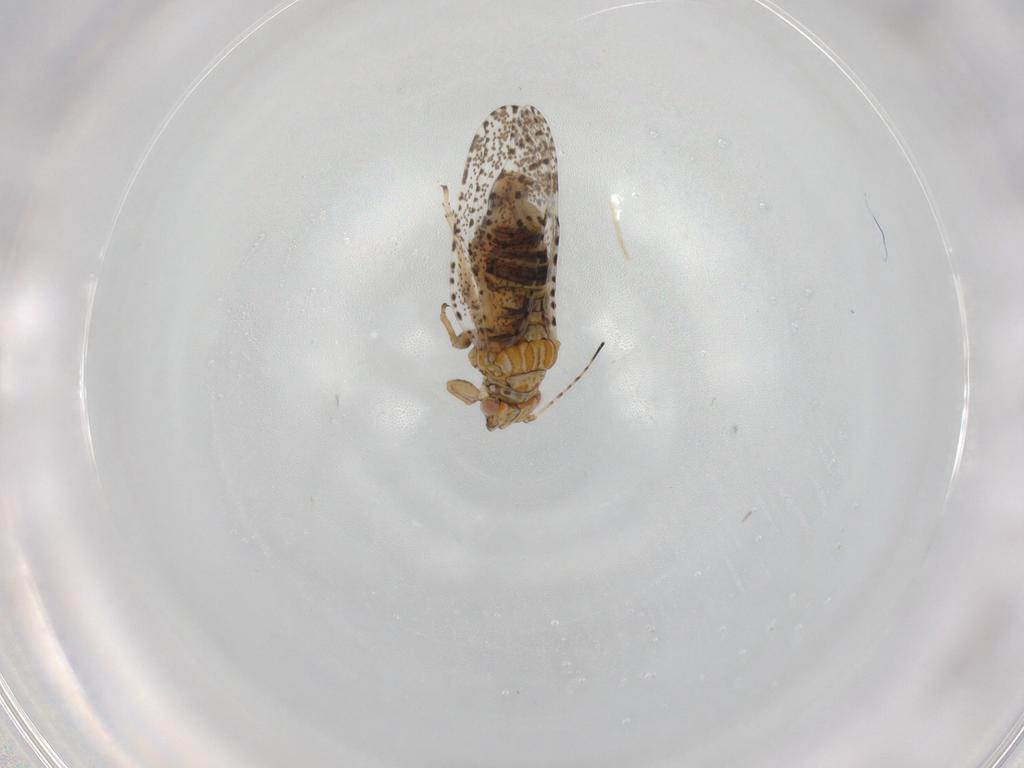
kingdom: Animalia
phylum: Arthropoda
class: Insecta
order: Hemiptera
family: Psylloidea_incertae_sedis
